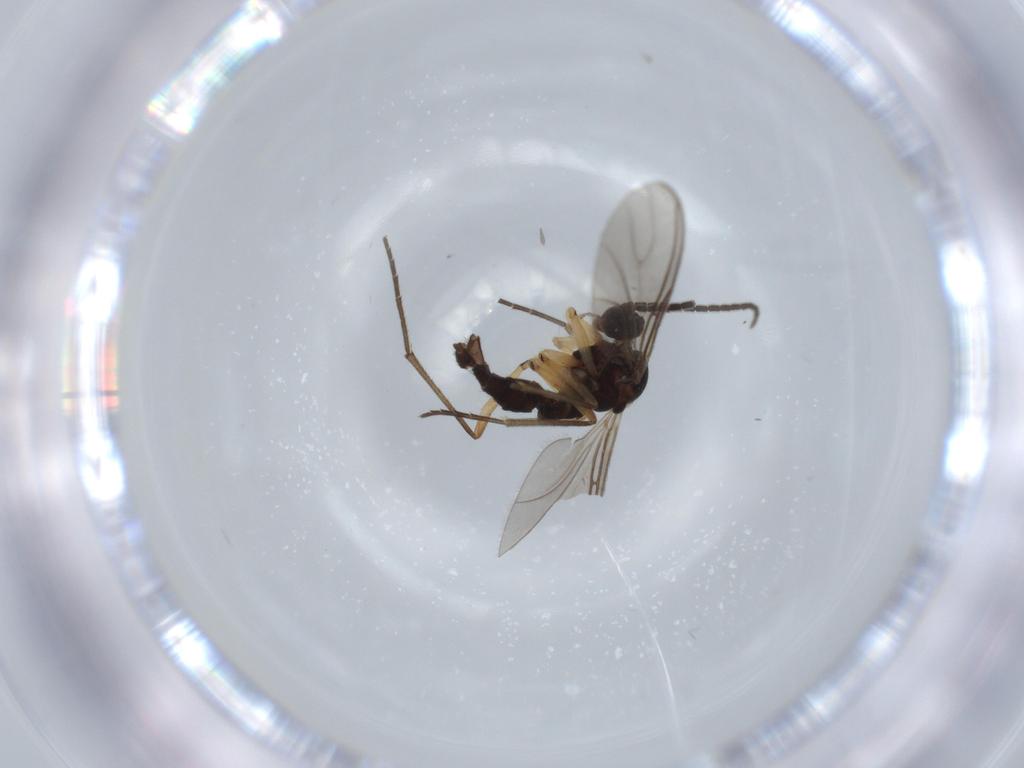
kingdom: Animalia
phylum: Arthropoda
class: Insecta
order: Diptera
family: Sciaridae
